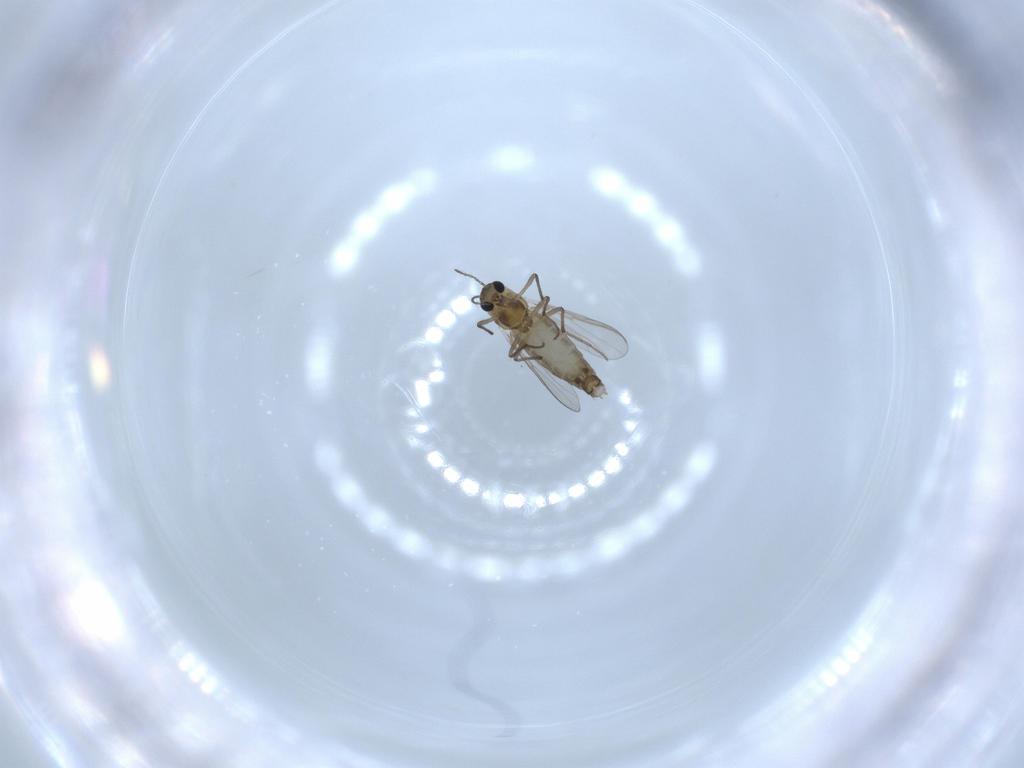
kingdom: Animalia
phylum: Arthropoda
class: Insecta
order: Diptera
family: Chironomidae
